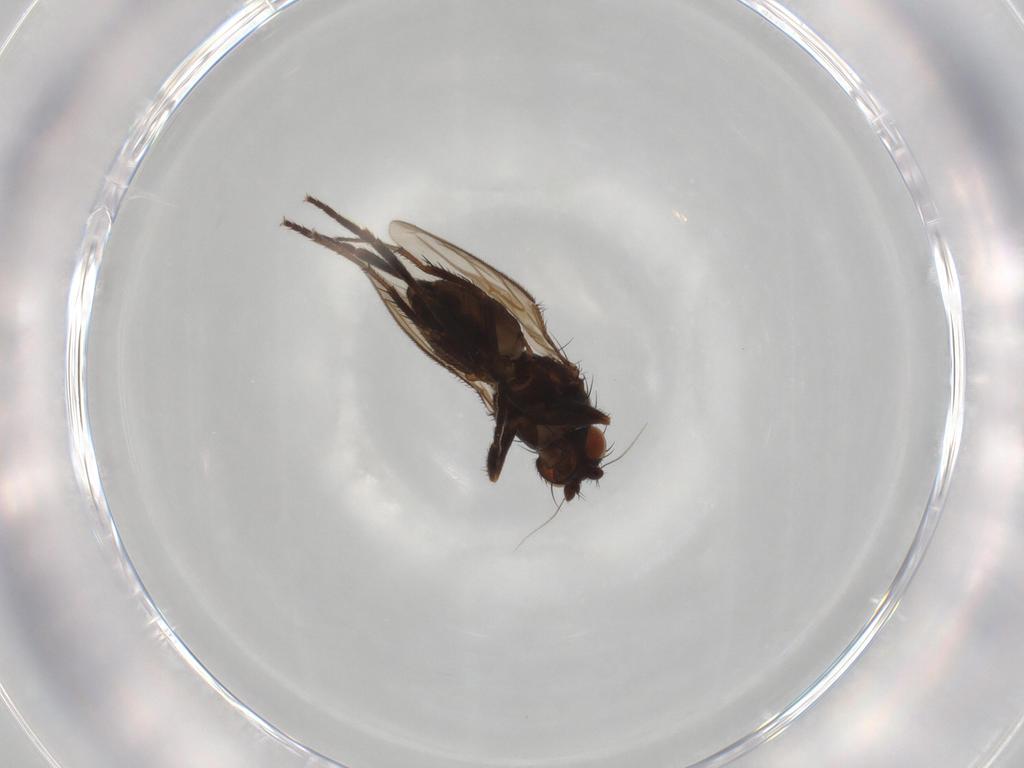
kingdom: Animalia
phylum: Arthropoda
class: Insecta
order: Diptera
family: Sphaeroceridae
